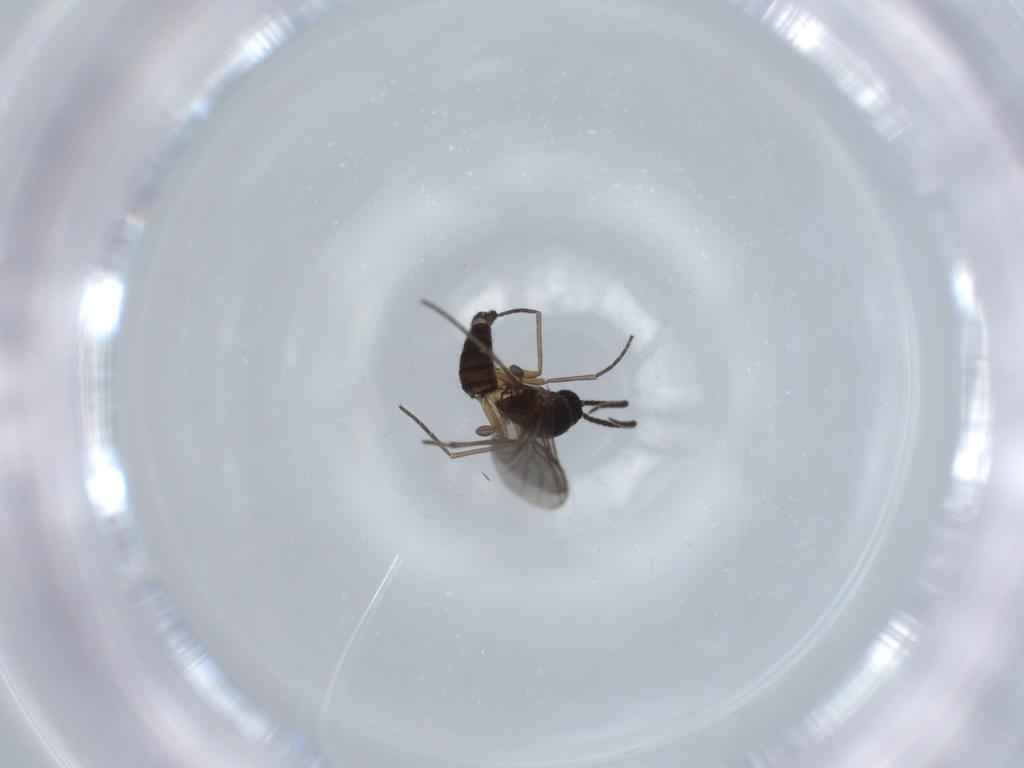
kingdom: Animalia
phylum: Arthropoda
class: Insecta
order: Diptera
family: Sciaridae
